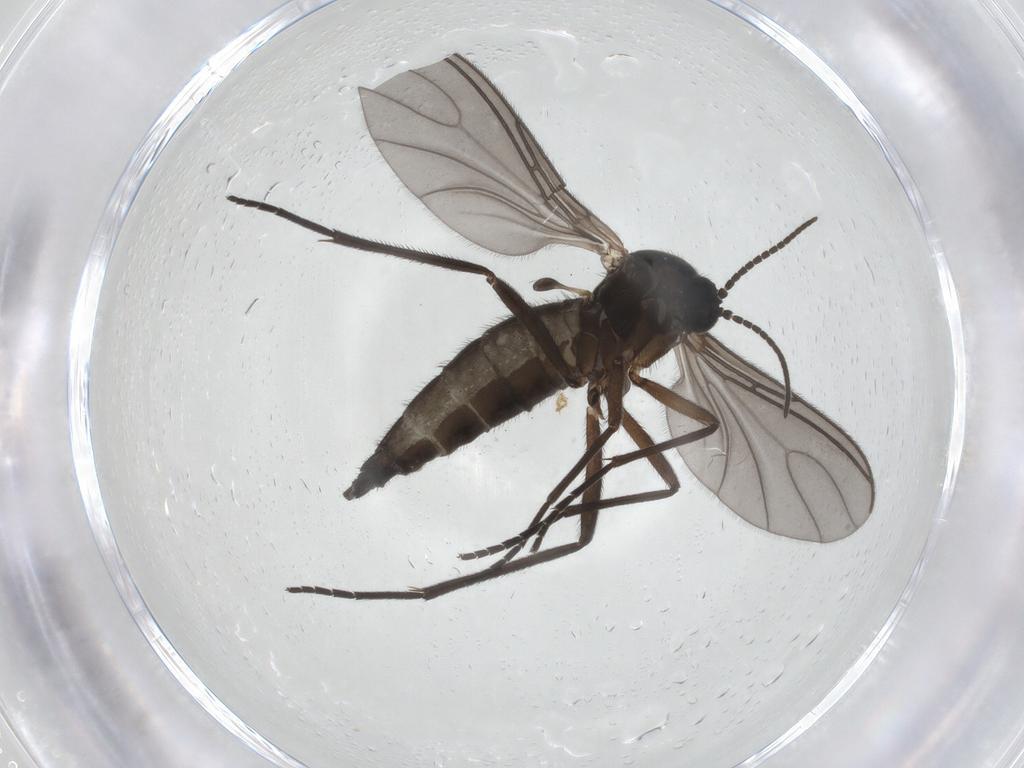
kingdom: Animalia
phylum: Arthropoda
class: Insecta
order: Diptera
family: Sciaridae
